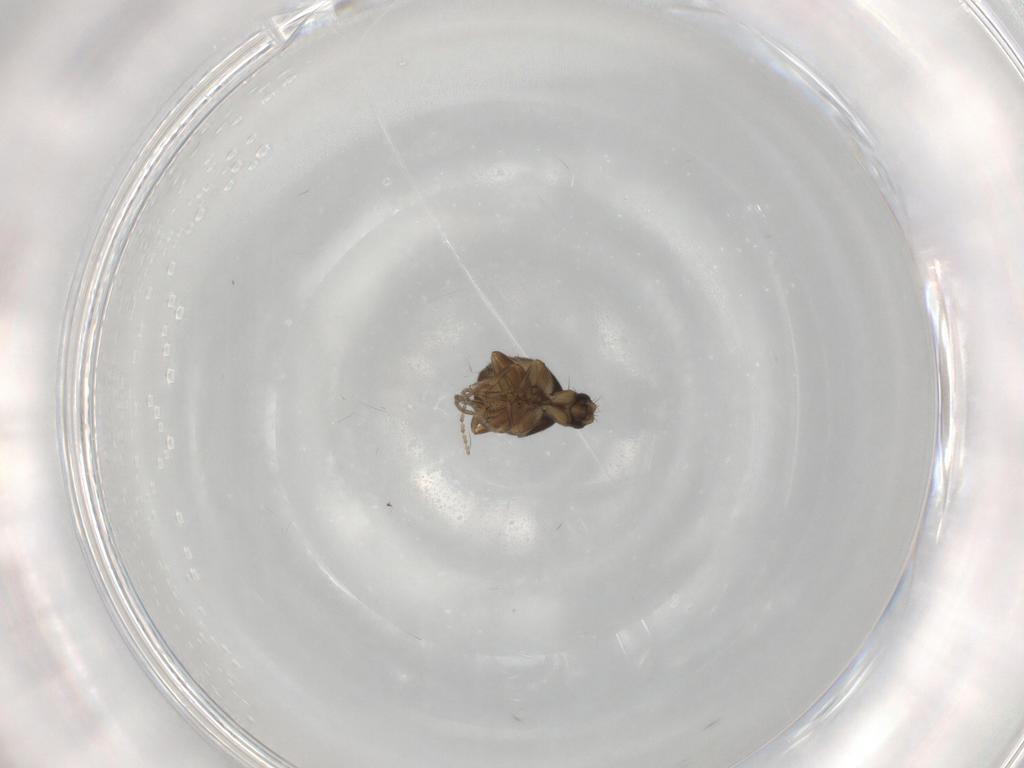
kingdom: Animalia
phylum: Arthropoda
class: Insecta
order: Diptera
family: Phoridae
